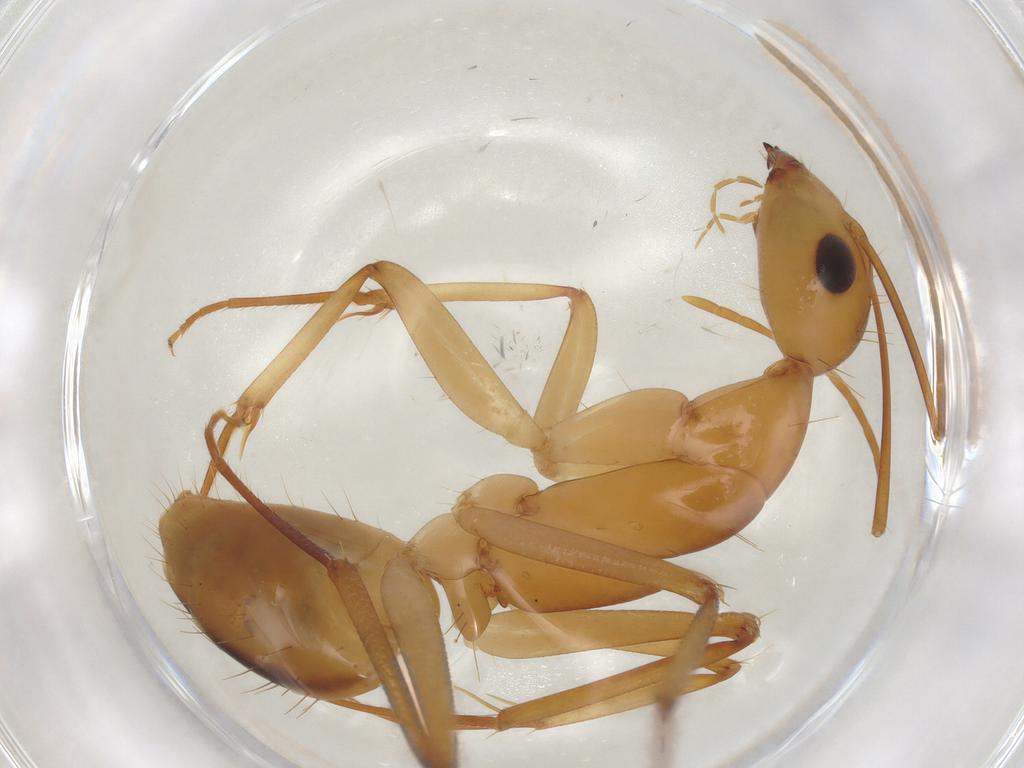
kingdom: Animalia
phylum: Arthropoda
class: Insecta
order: Hymenoptera
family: Formicidae
